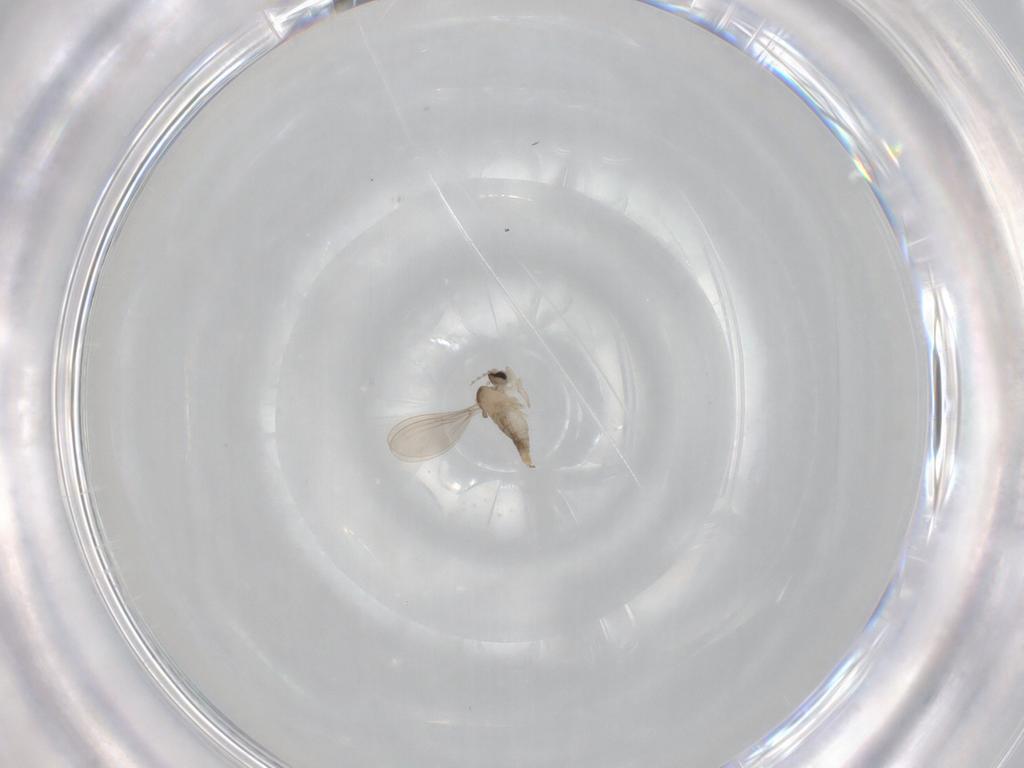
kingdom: Animalia
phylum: Arthropoda
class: Insecta
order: Diptera
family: Cecidomyiidae
